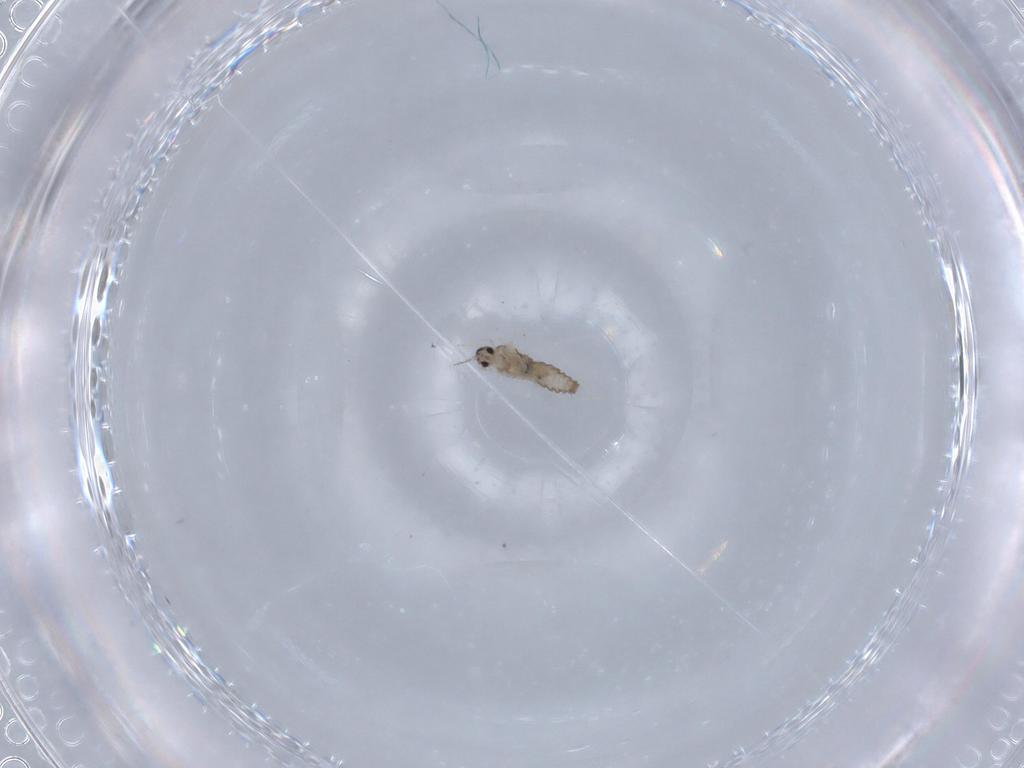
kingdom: Animalia
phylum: Arthropoda
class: Insecta
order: Diptera
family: Cecidomyiidae
